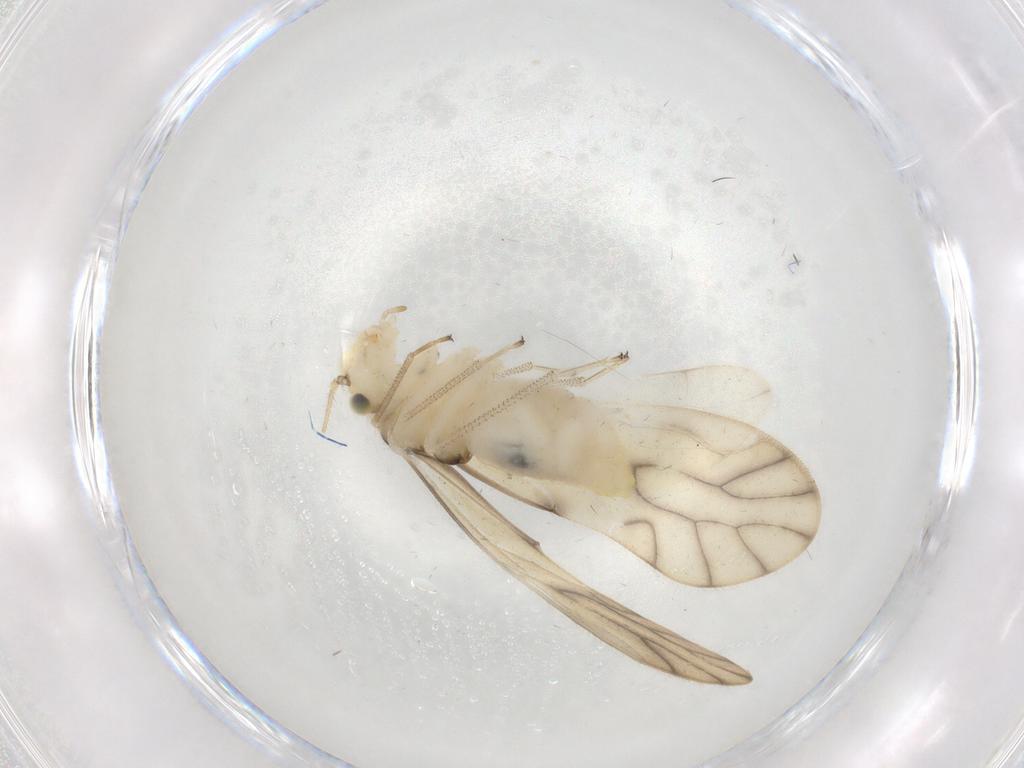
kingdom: Animalia
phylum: Arthropoda
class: Insecta
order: Psocodea
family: Caeciliusidae
